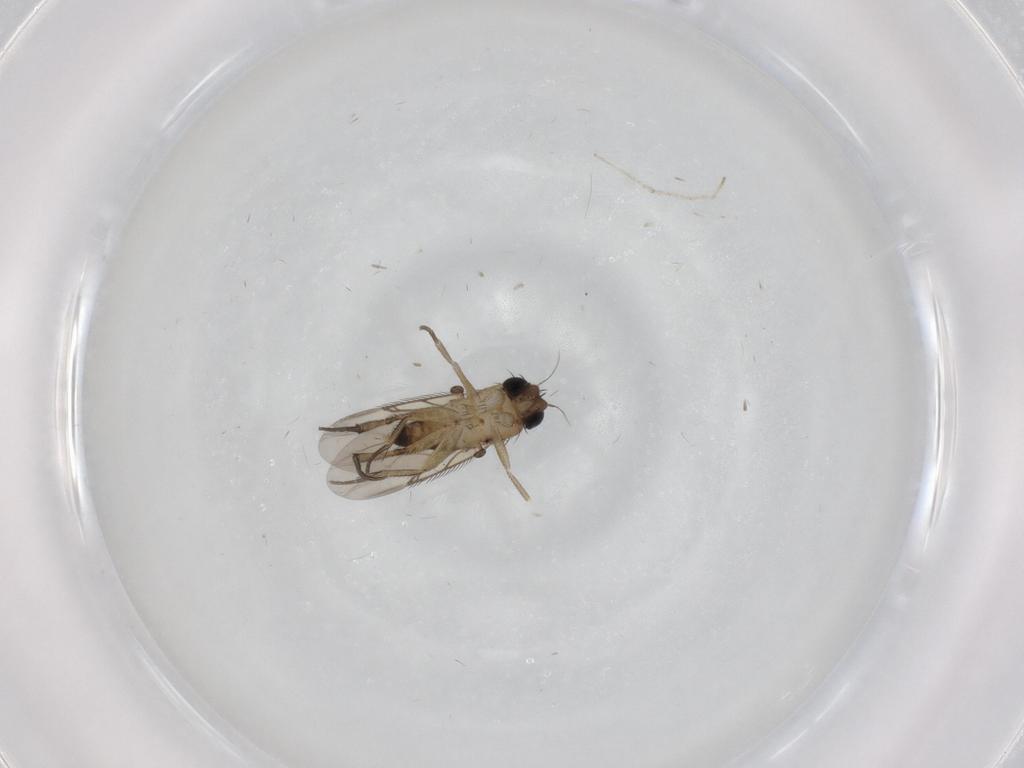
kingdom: Animalia
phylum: Arthropoda
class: Insecta
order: Diptera
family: Phoridae
